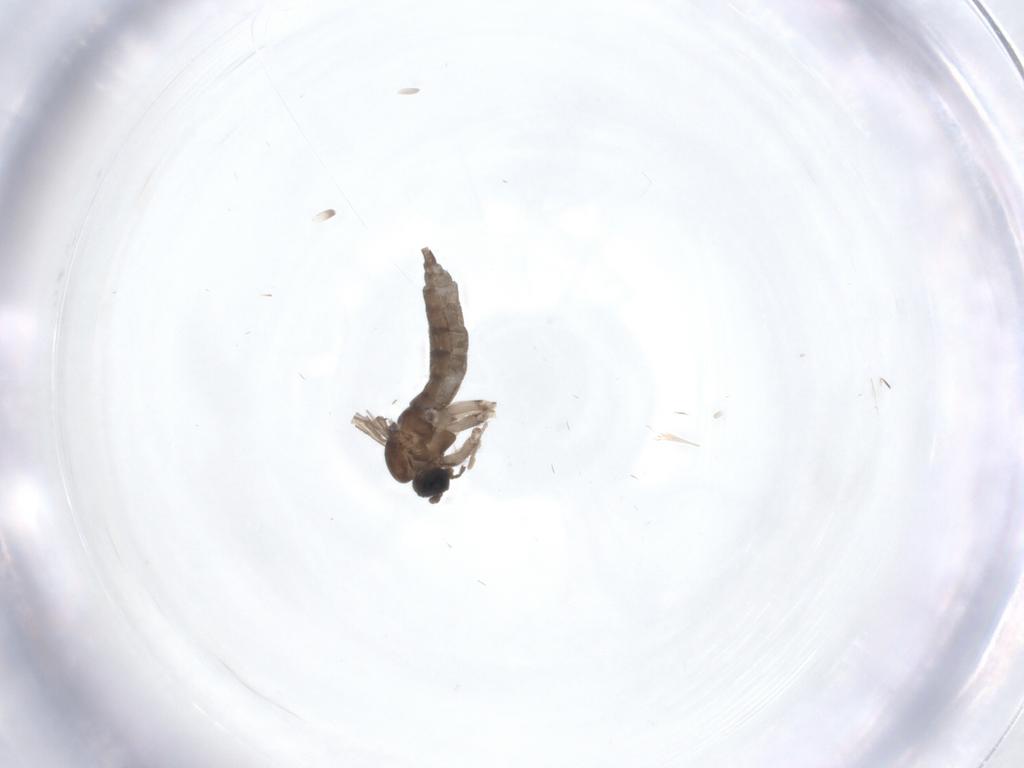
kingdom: Animalia
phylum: Arthropoda
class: Insecta
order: Diptera
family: Sciaridae
